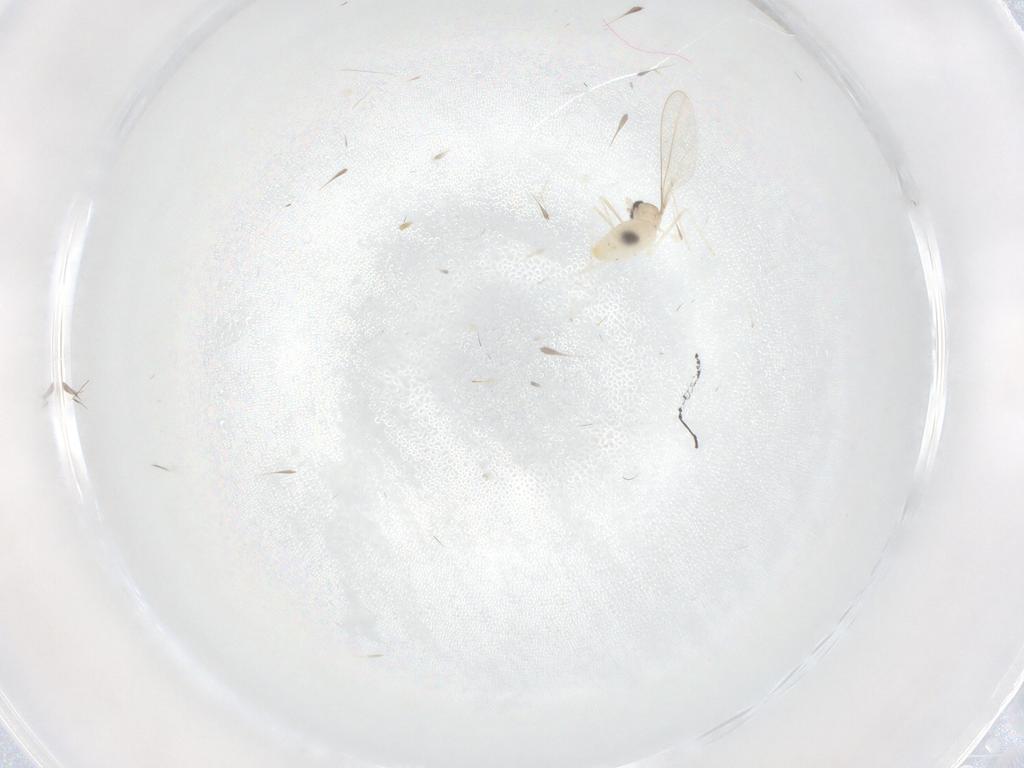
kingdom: Animalia
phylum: Arthropoda
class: Insecta
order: Diptera
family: Cecidomyiidae
